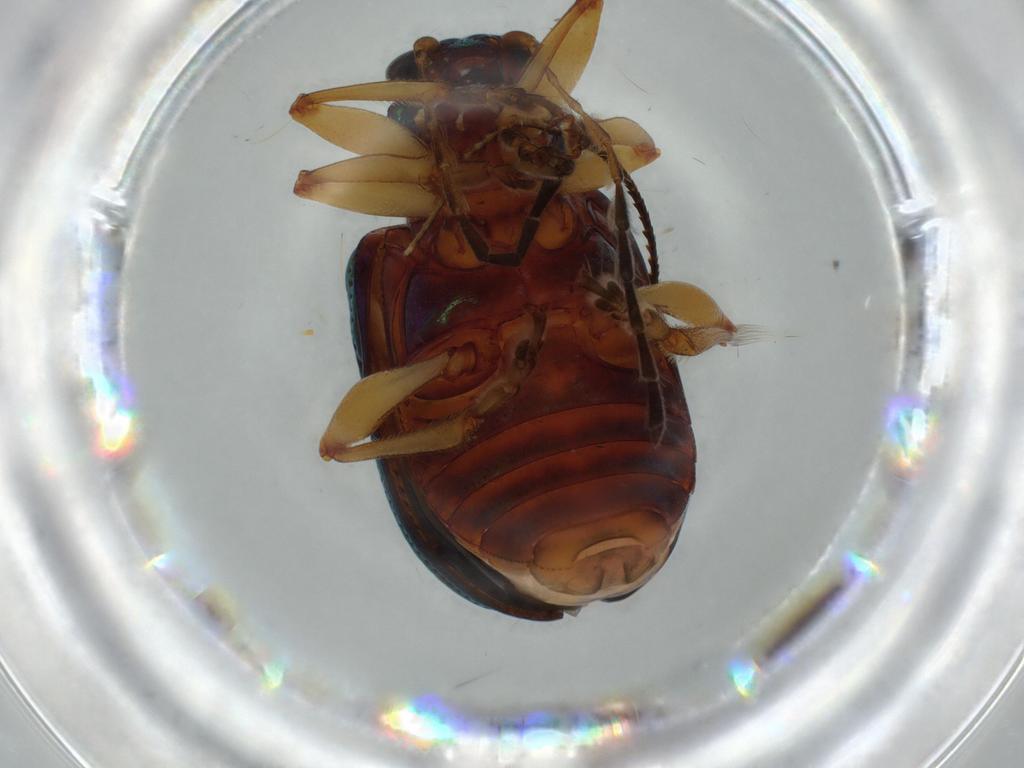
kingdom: Animalia
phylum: Arthropoda
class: Insecta
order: Coleoptera
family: Chrysomelidae
